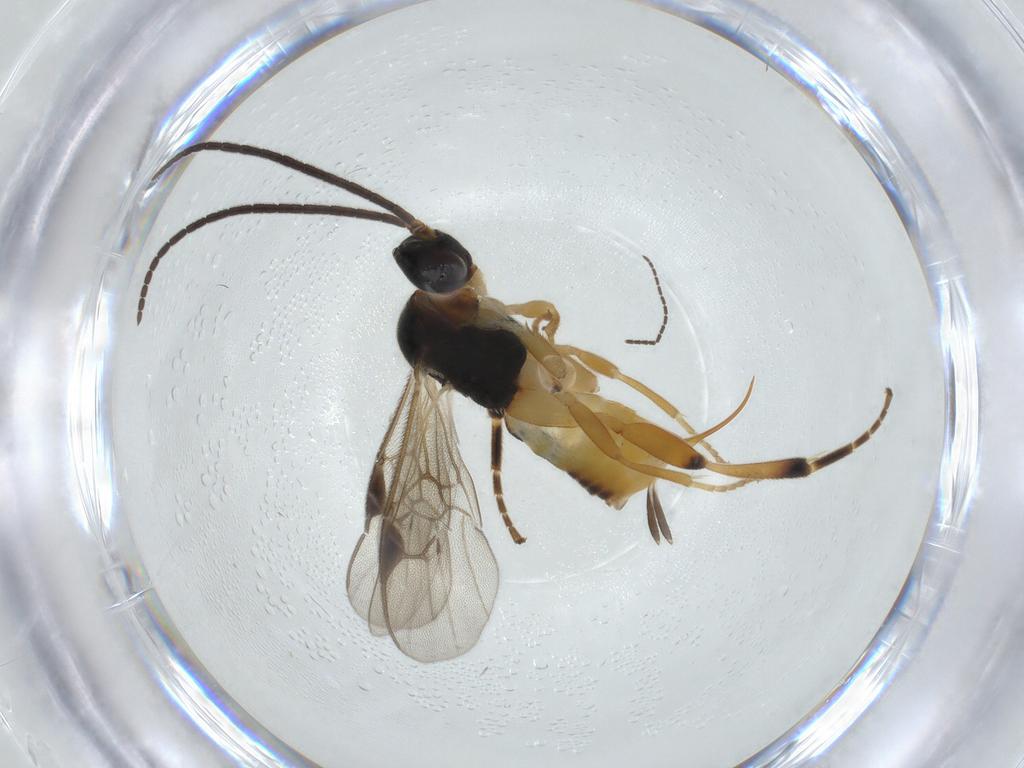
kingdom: Animalia
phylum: Arthropoda
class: Insecta
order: Hymenoptera
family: Braconidae
